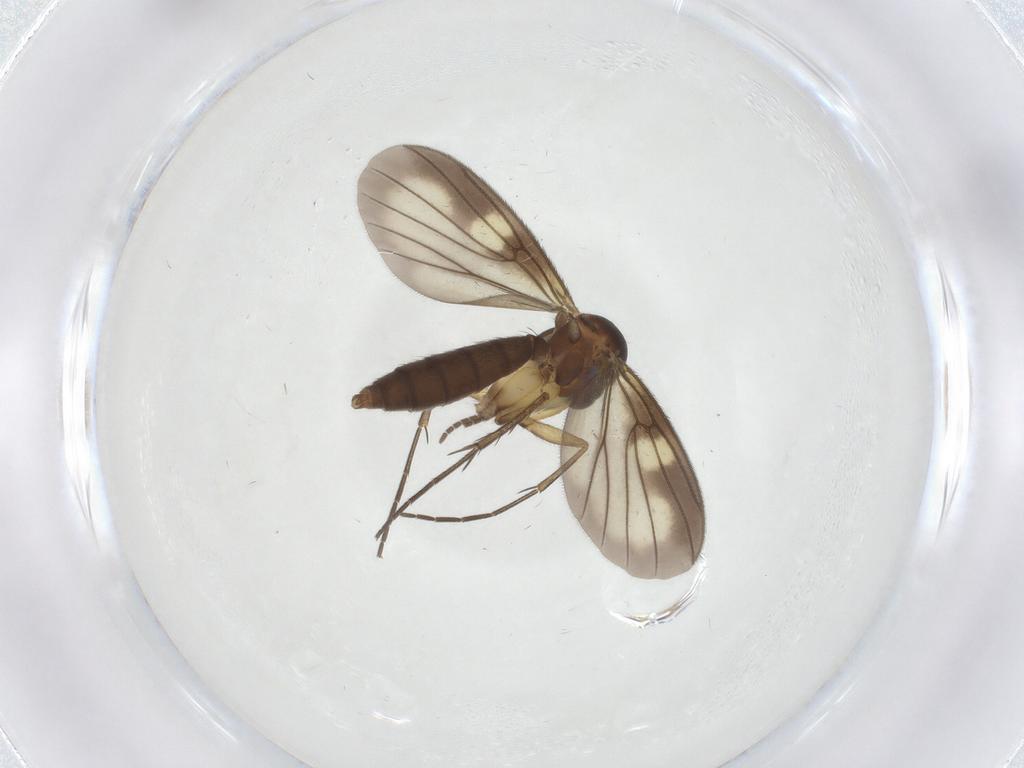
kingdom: Animalia
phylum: Arthropoda
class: Insecta
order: Diptera
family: Mycetophilidae
